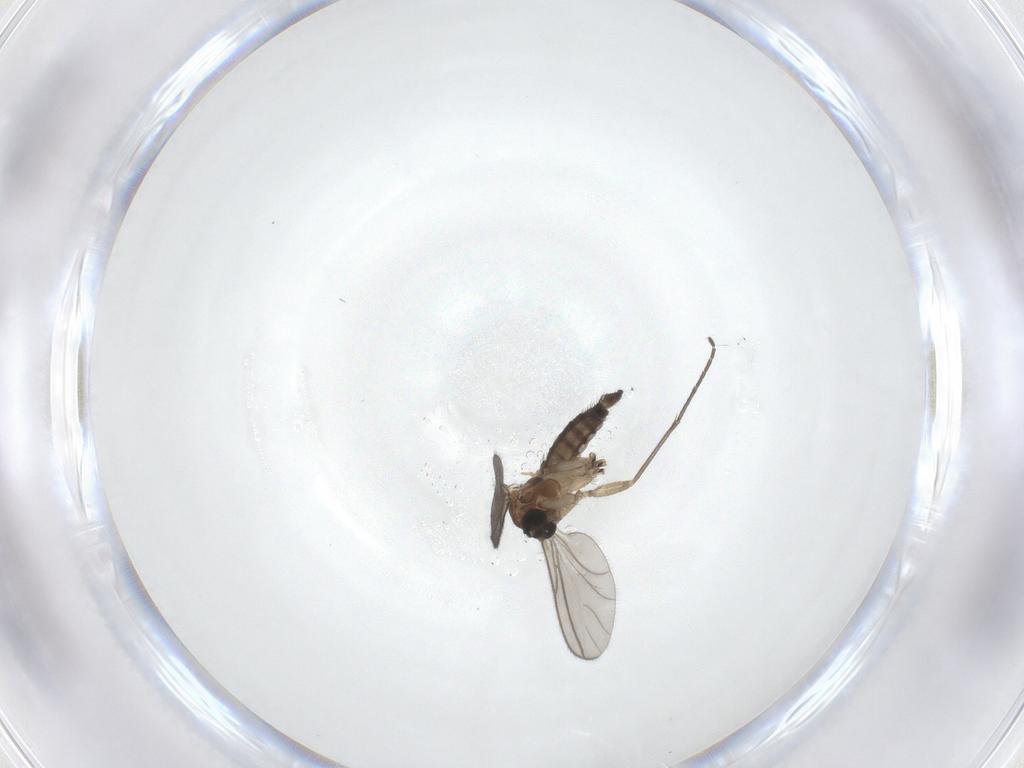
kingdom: Animalia
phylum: Arthropoda
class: Insecta
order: Diptera
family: Sciaridae
